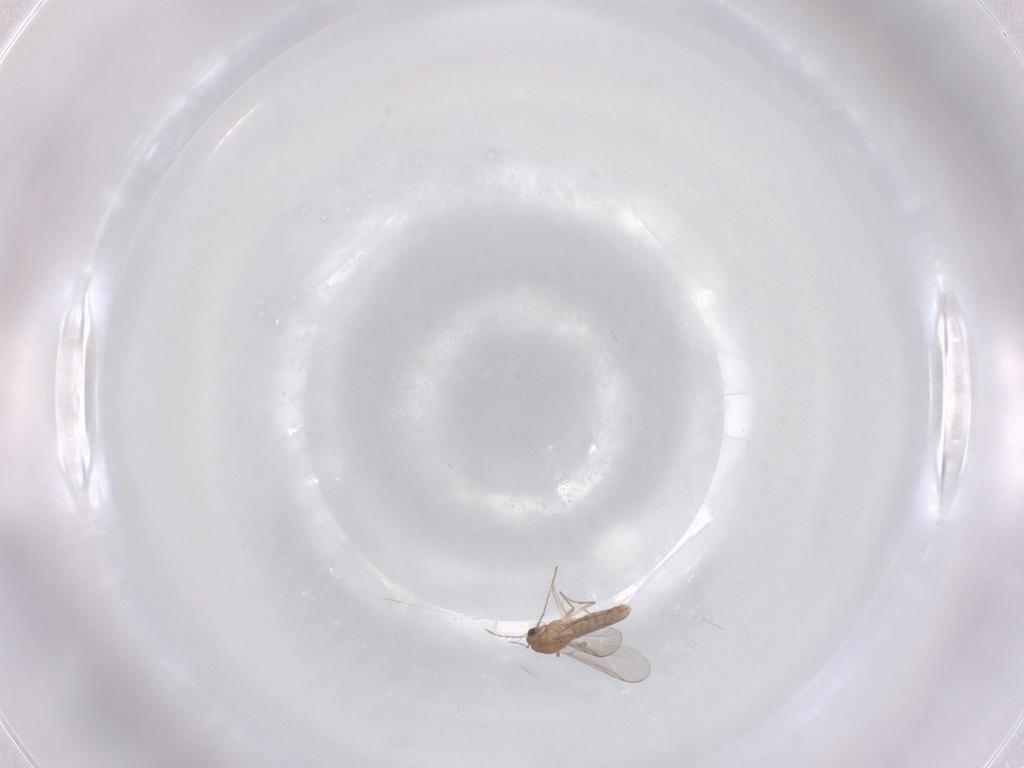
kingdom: Animalia
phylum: Arthropoda
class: Insecta
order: Diptera
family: Chironomidae
